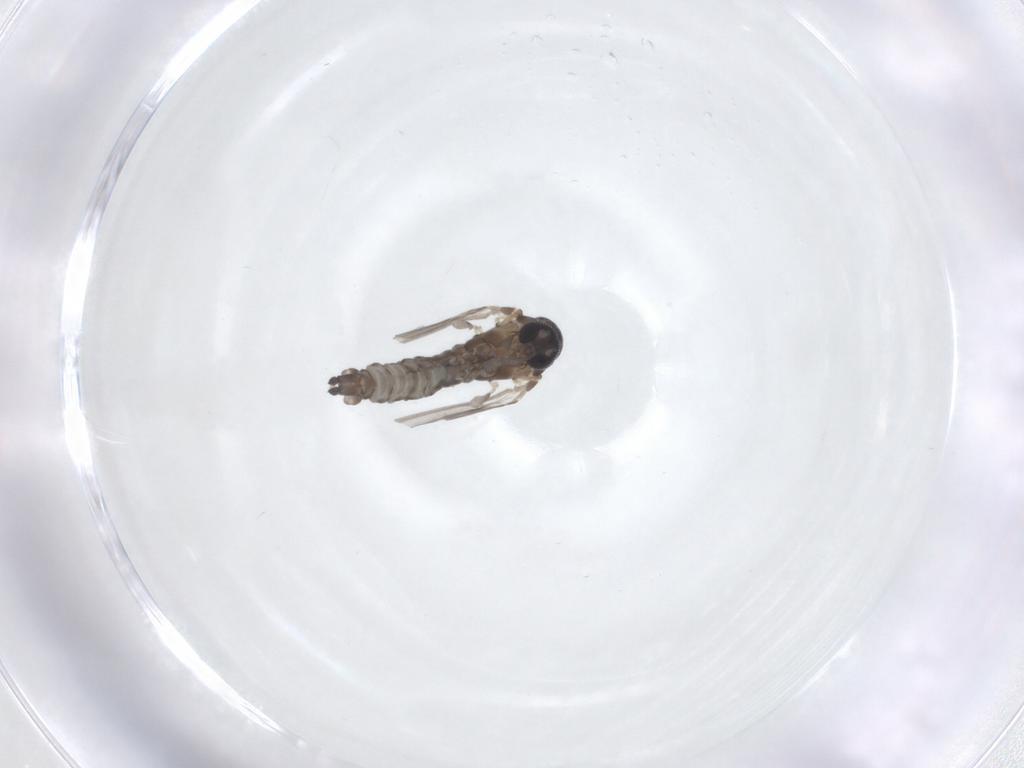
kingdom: Animalia
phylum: Arthropoda
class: Insecta
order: Diptera
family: Psychodidae
